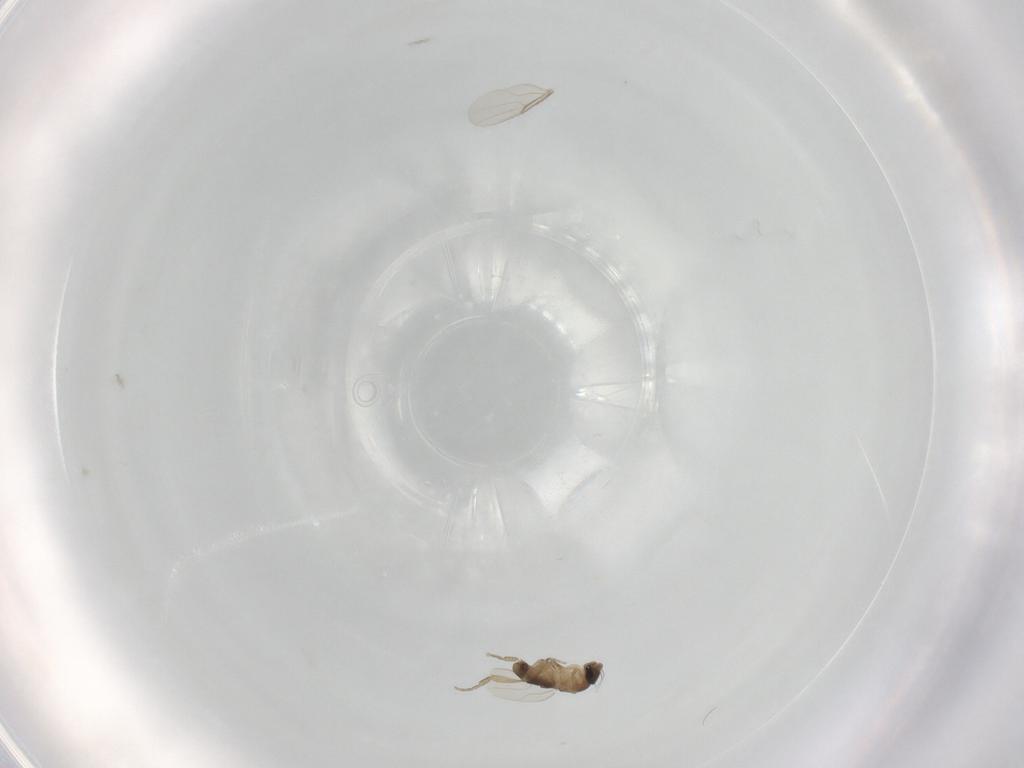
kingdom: Animalia
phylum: Arthropoda
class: Insecta
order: Diptera
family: Phoridae
